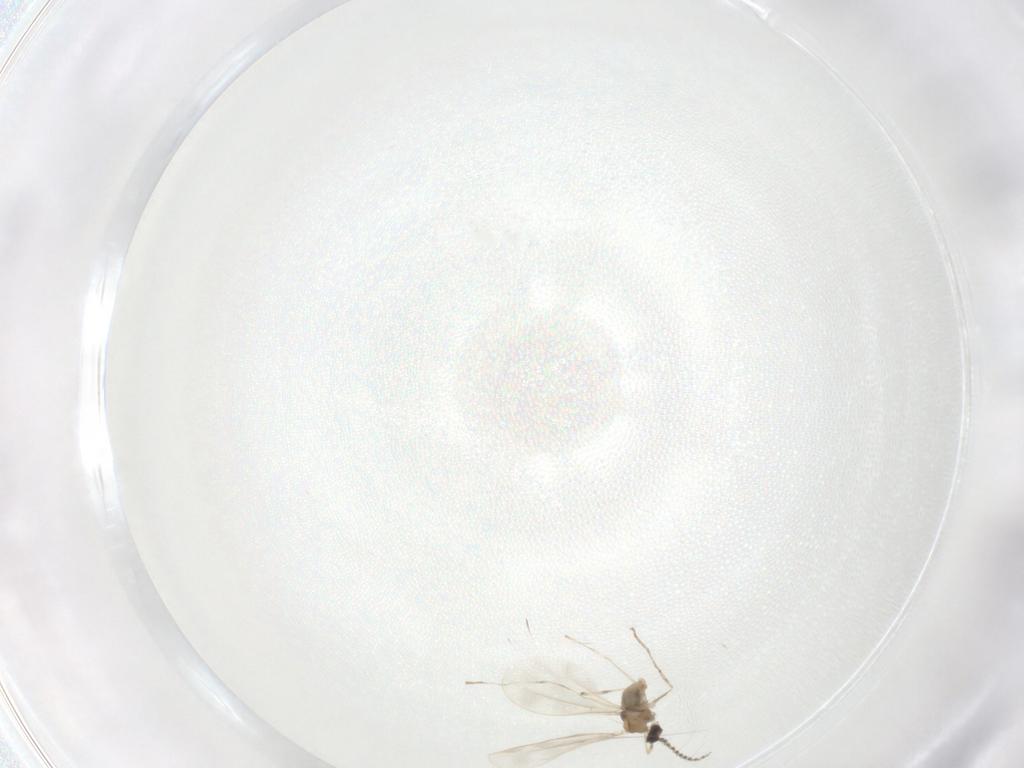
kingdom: Animalia
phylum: Arthropoda
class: Insecta
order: Diptera
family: Cecidomyiidae
